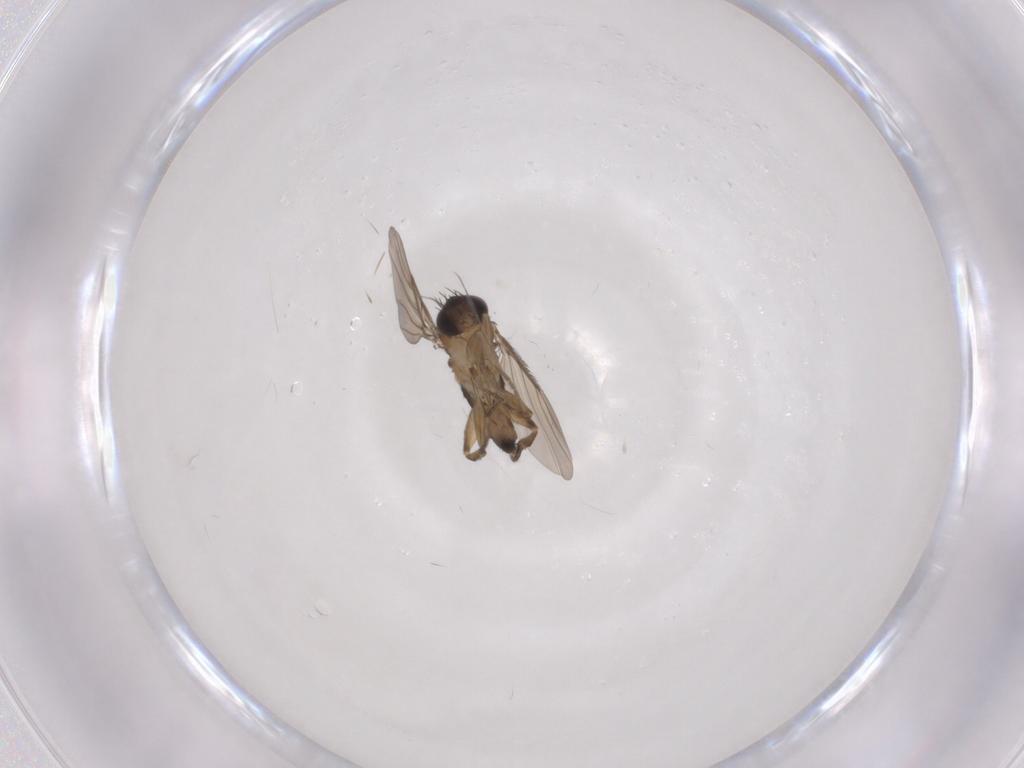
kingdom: Animalia
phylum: Arthropoda
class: Insecta
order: Diptera
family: Phoridae
